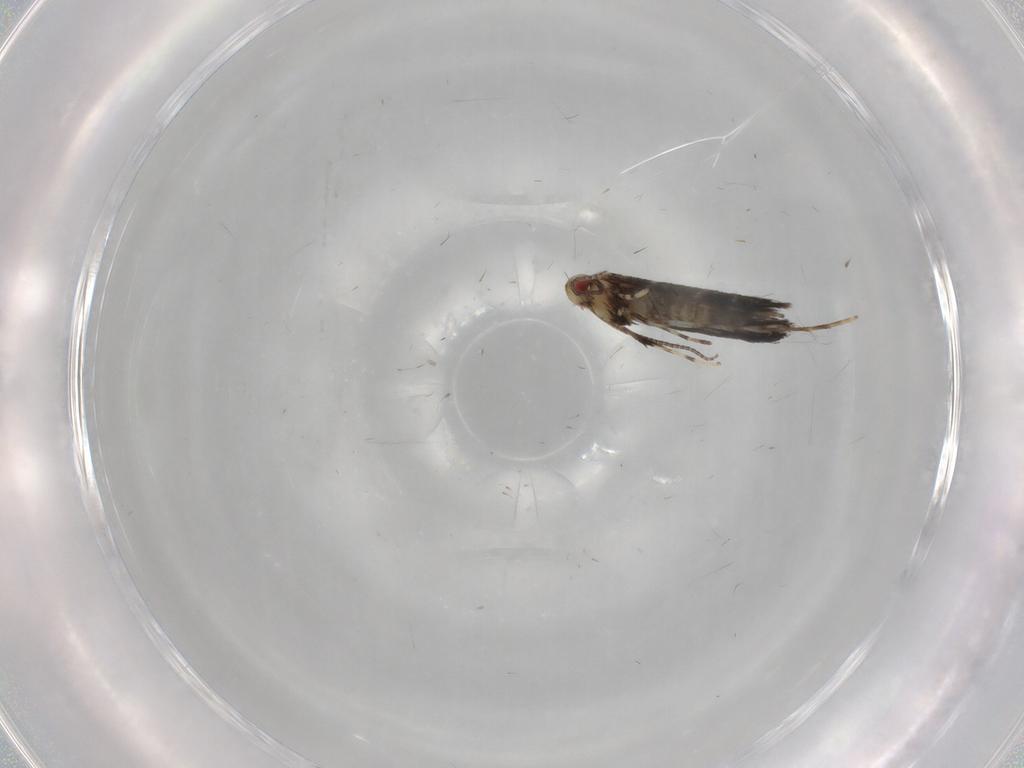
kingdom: Animalia
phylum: Arthropoda
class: Insecta
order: Lepidoptera
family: Gracillariidae
